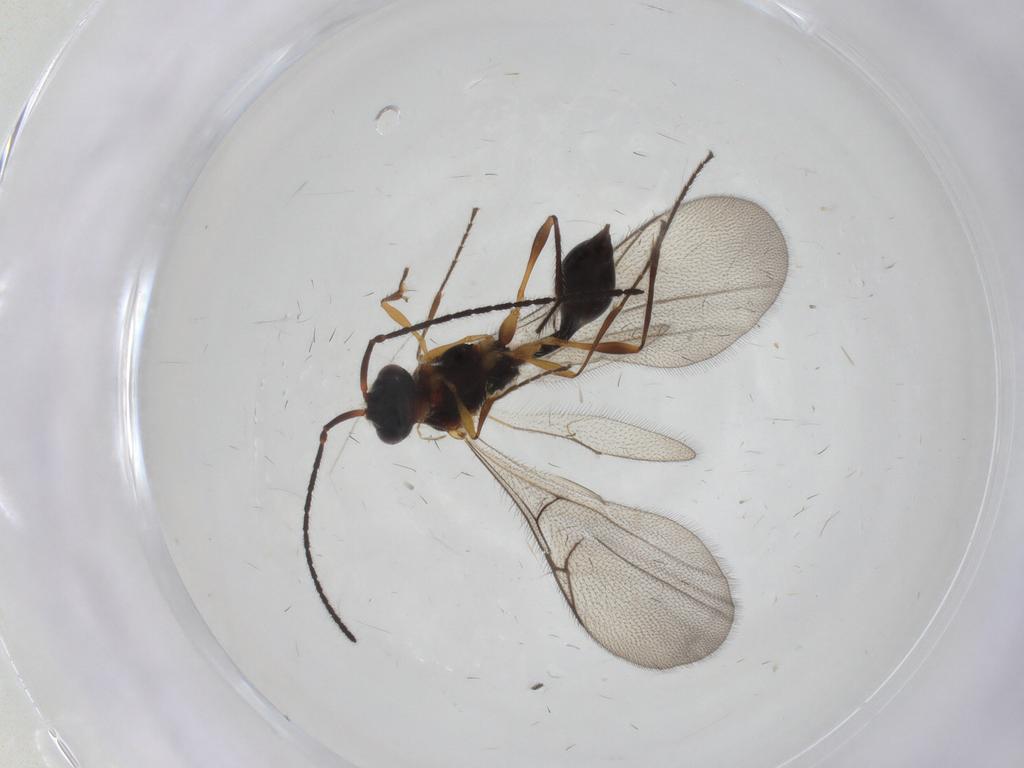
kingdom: Animalia
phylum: Arthropoda
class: Insecta
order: Hymenoptera
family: Diapriidae
